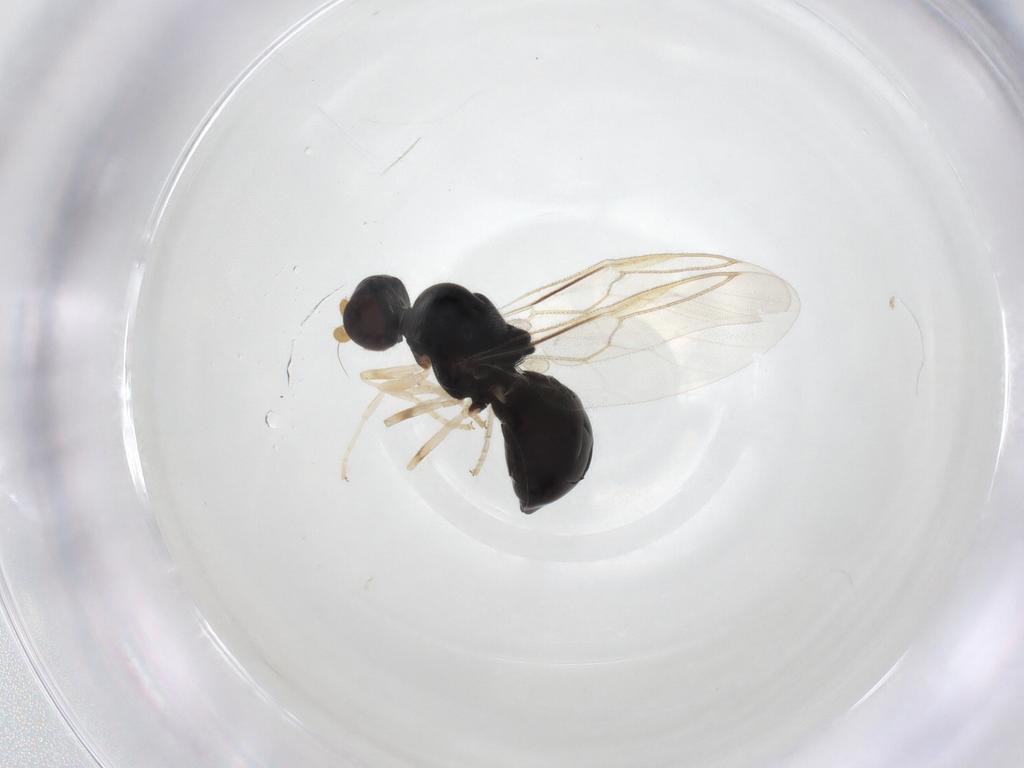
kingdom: Animalia
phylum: Arthropoda
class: Insecta
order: Diptera
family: Stratiomyidae
